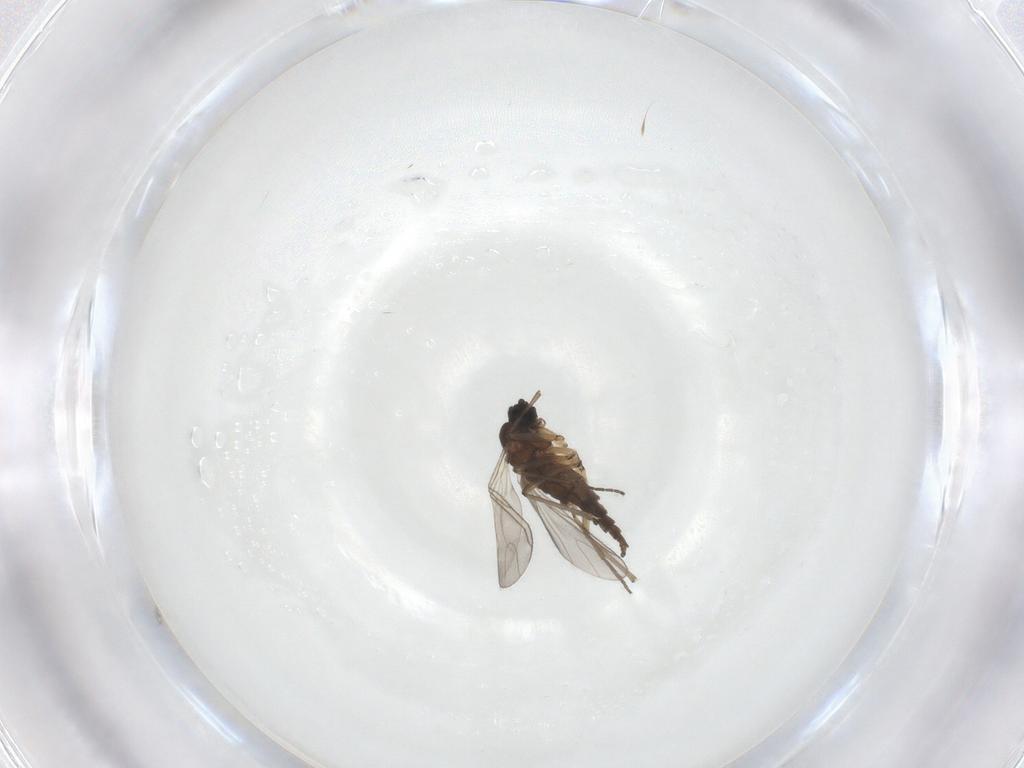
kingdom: Animalia
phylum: Arthropoda
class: Insecta
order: Diptera
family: Sciaridae
